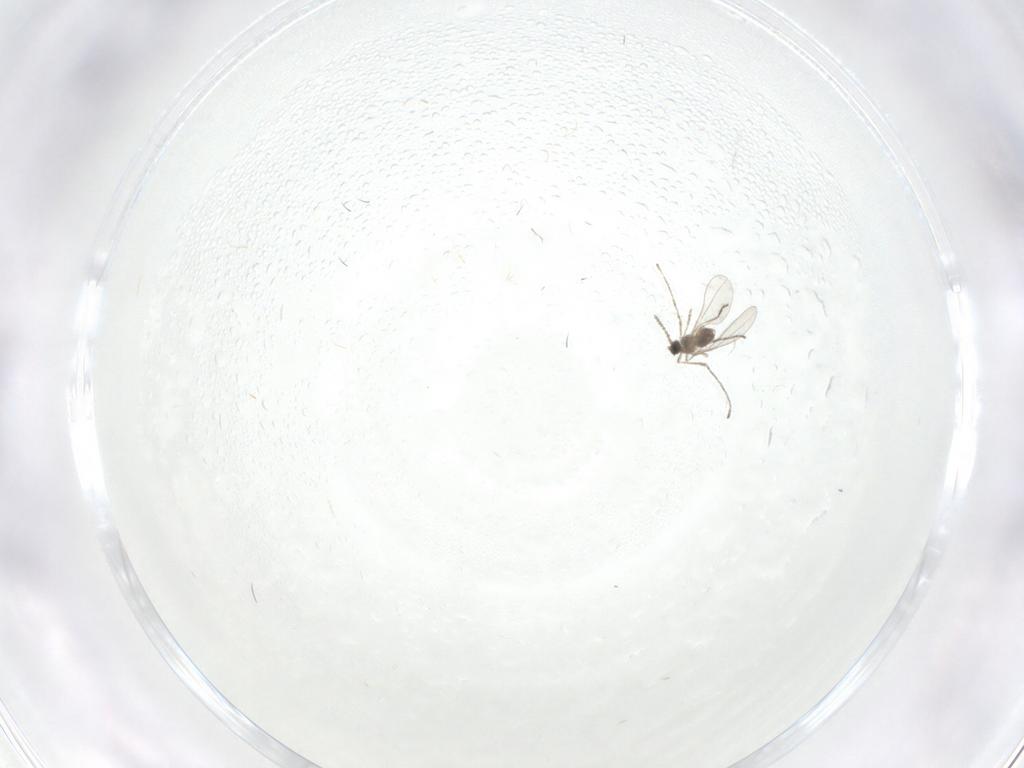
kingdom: Animalia
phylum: Arthropoda
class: Insecta
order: Diptera
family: Cecidomyiidae
